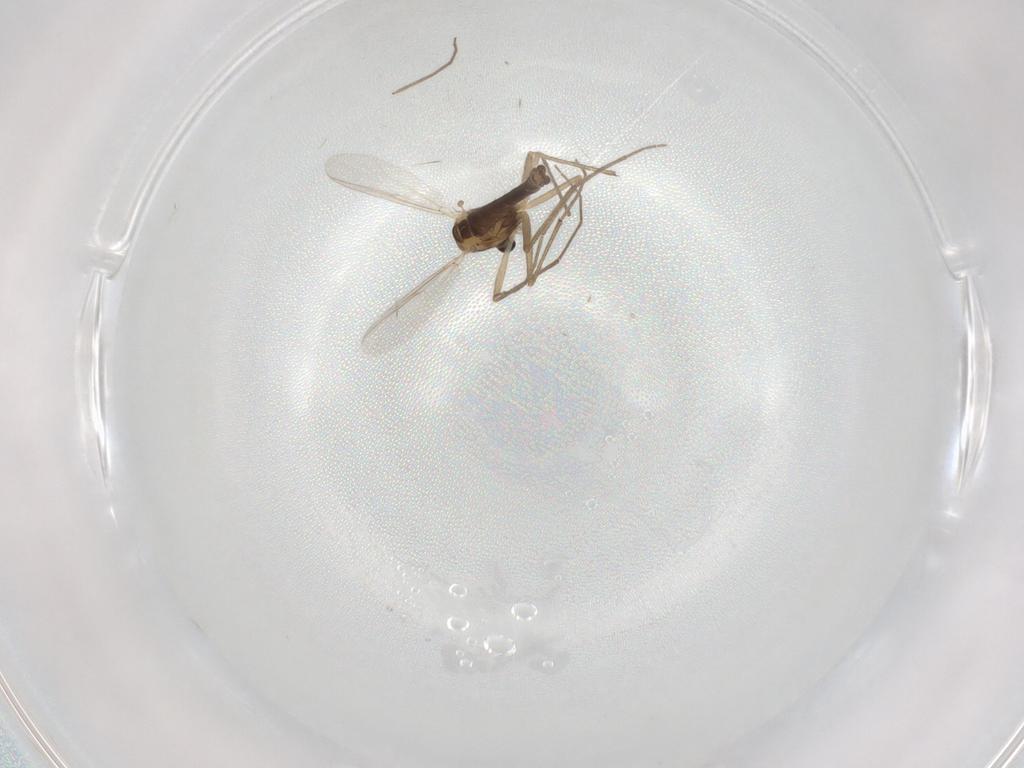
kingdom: Animalia
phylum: Arthropoda
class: Insecta
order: Diptera
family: Chironomidae
